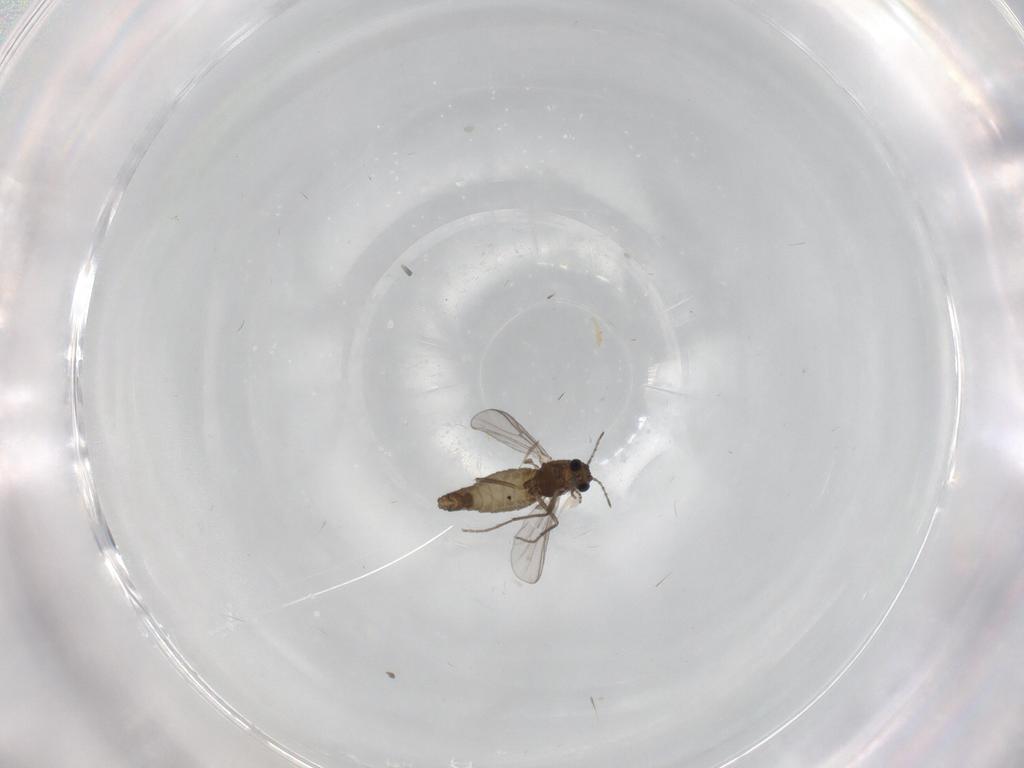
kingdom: Animalia
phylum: Arthropoda
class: Insecta
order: Diptera
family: Chironomidae
